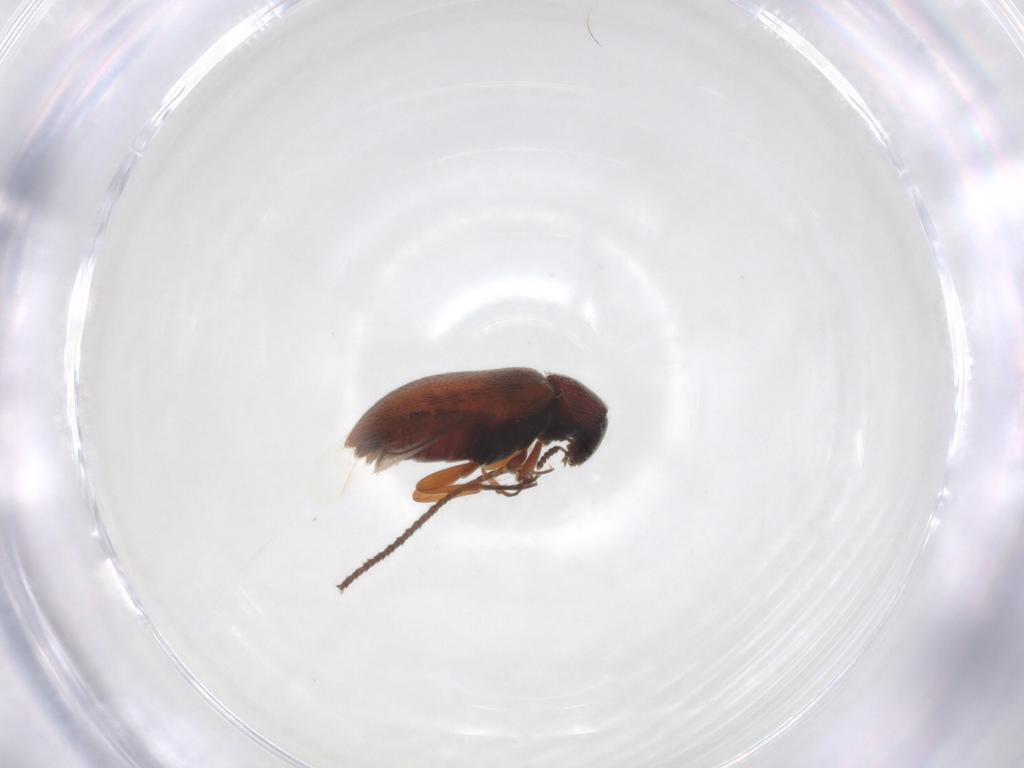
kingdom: Animalia
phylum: Arthropoda
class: Insecta
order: Coleoptera
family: Rhadalidae
